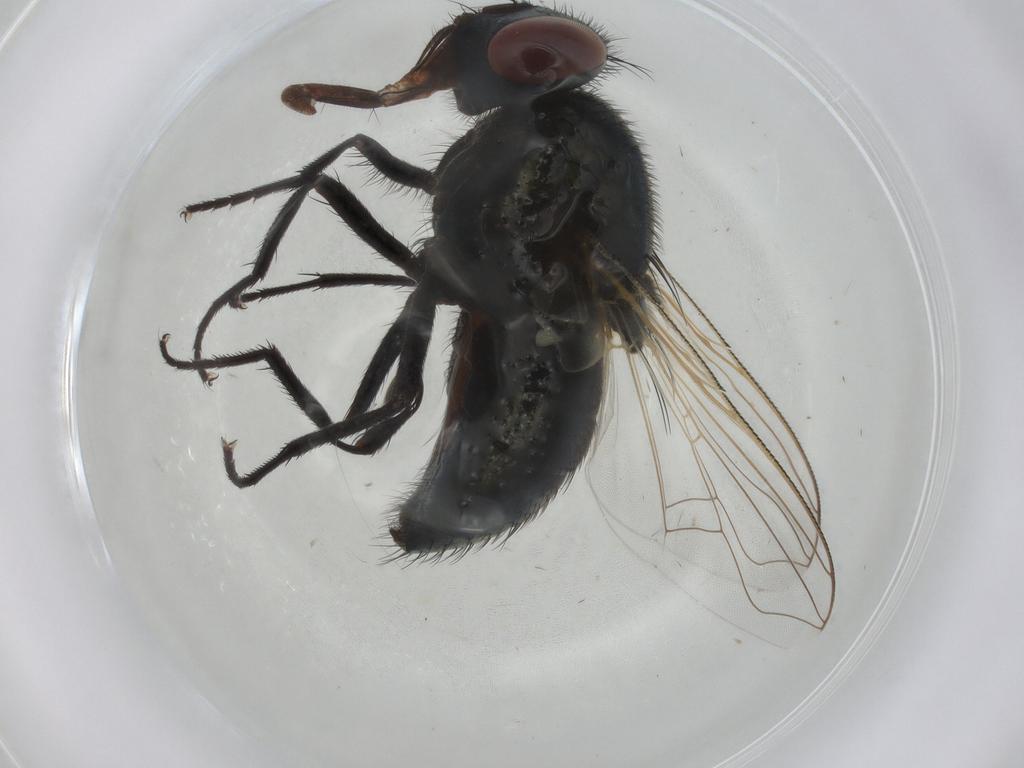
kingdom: Animalia
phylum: Arthropoda
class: Insecta
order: Diptera
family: Muscidae
